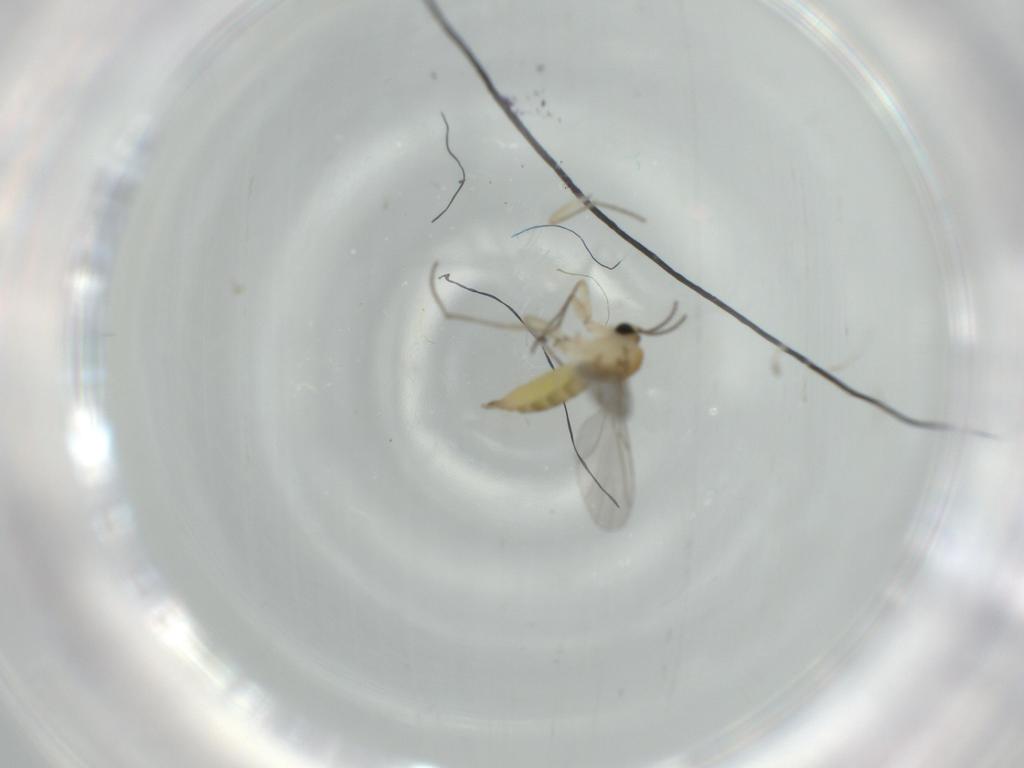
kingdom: Animalia
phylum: Arthropoda
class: Insecta
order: Diptera
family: Sciaridae
